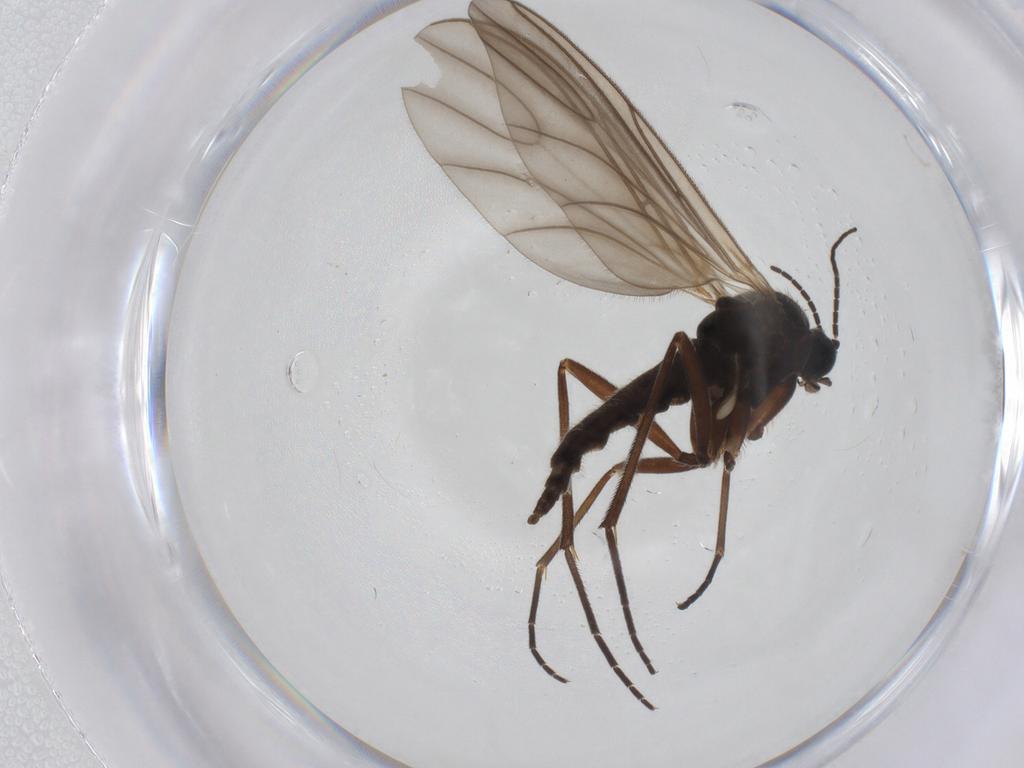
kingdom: Animalia
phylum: Arthropoda
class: Insecta
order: Diptera
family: Sciaridae
